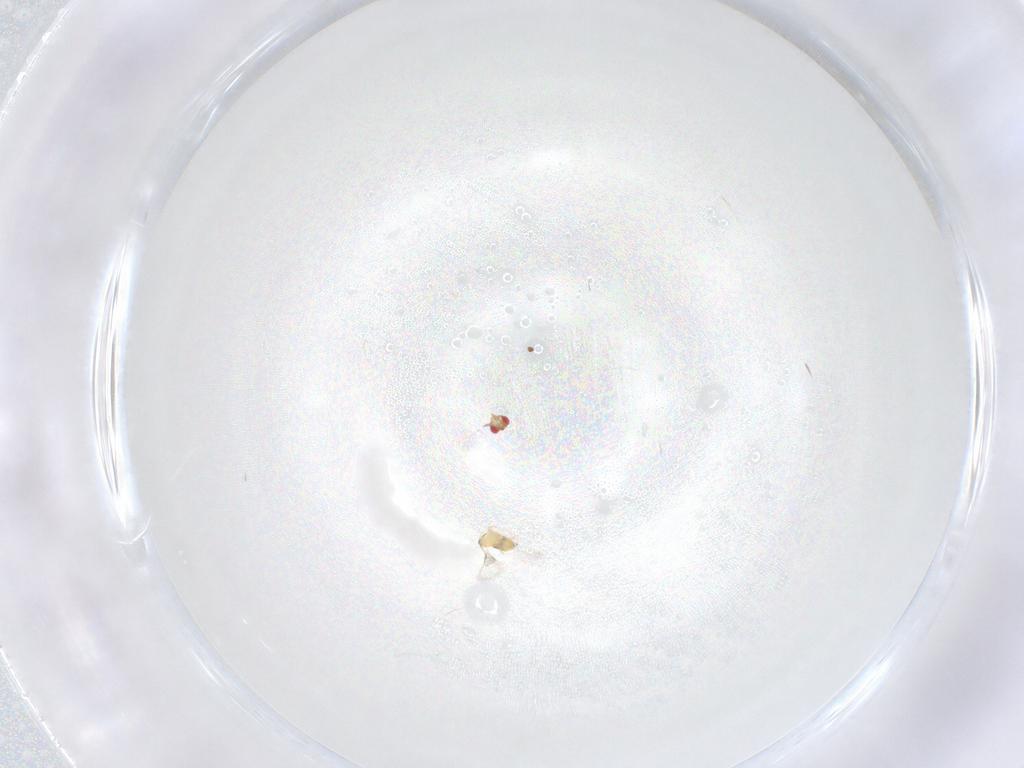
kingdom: Animalia
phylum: Arthropoda
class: Insecta
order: Hymenoptera
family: Trichogrammatidae
